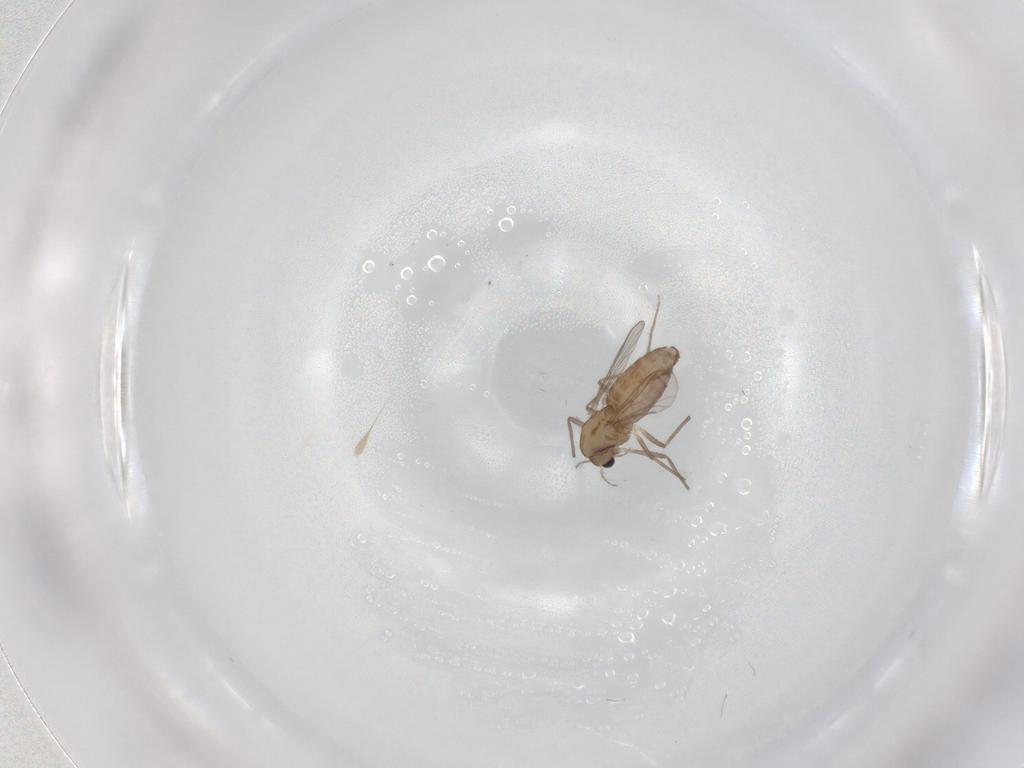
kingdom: Animalia
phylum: Arthropoda
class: Insecta
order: Diptera
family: Chironomidae
